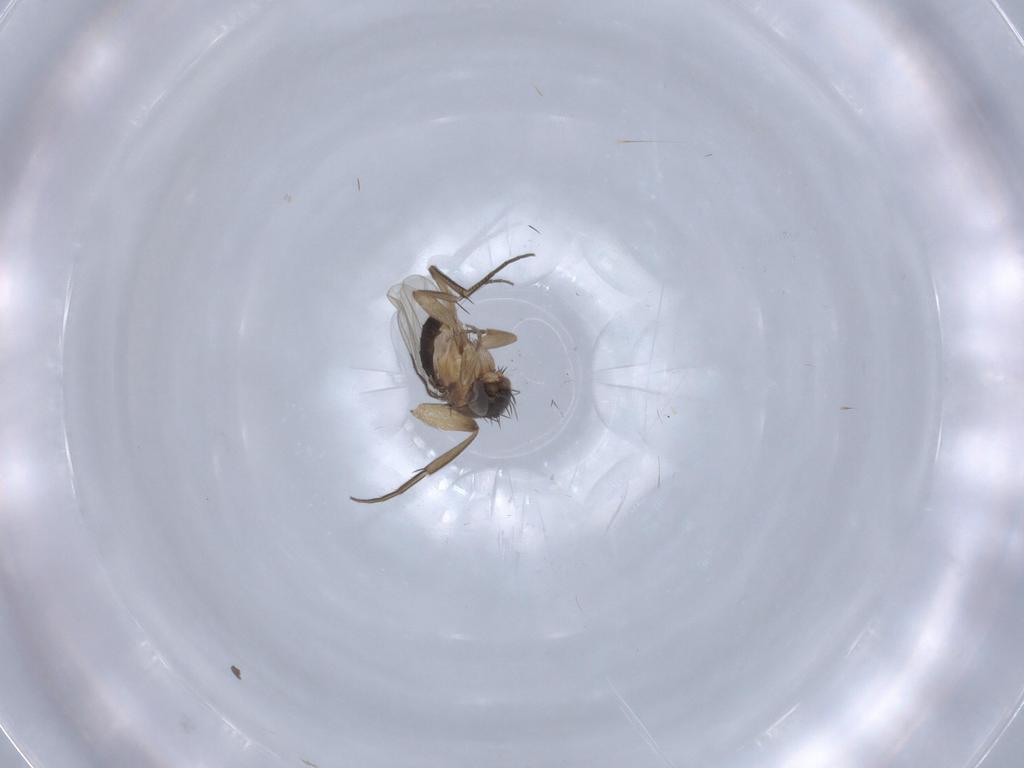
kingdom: Animalia
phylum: Arthropoda
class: Insecta
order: Diptera
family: Phoridae
